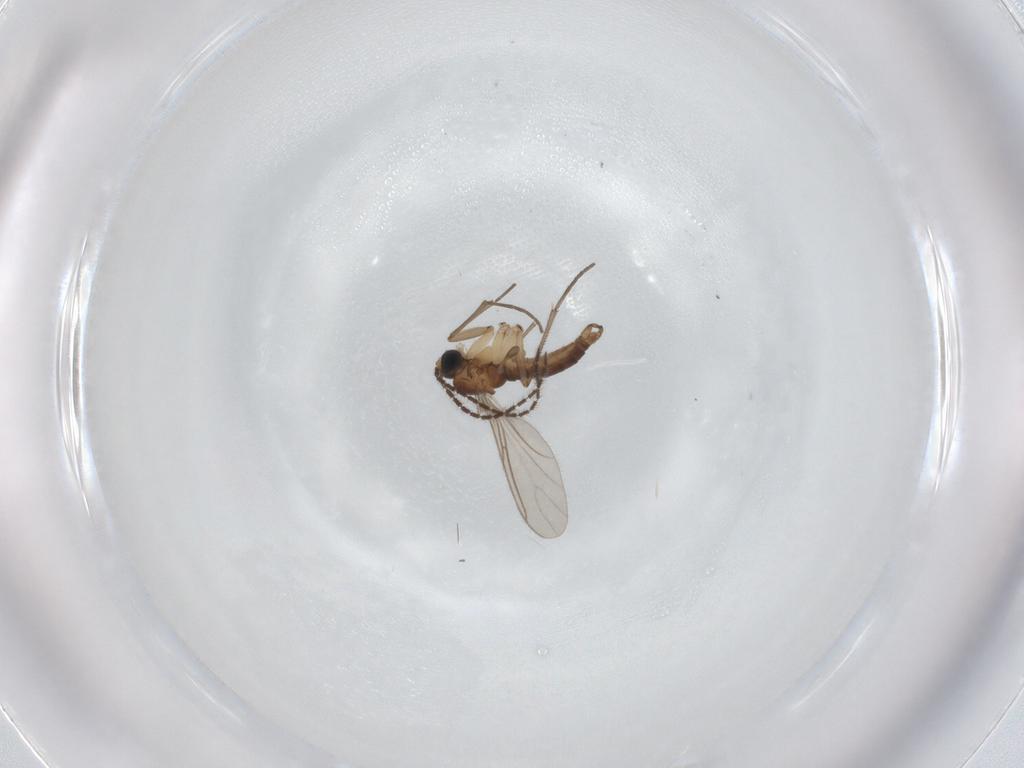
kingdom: Animalia
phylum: Arthropoda
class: Insecta
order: Diptera
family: Sciaridae
